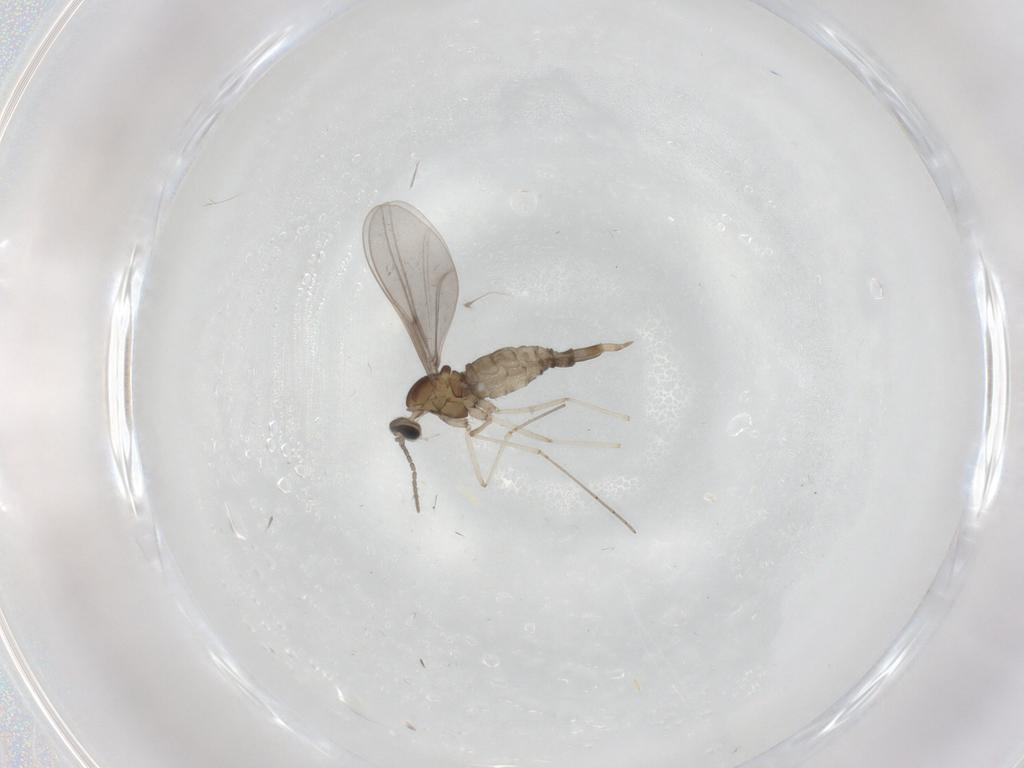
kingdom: Animalia
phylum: Arthropoda
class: Insecta
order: Diptera
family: Cecidomyiidae
